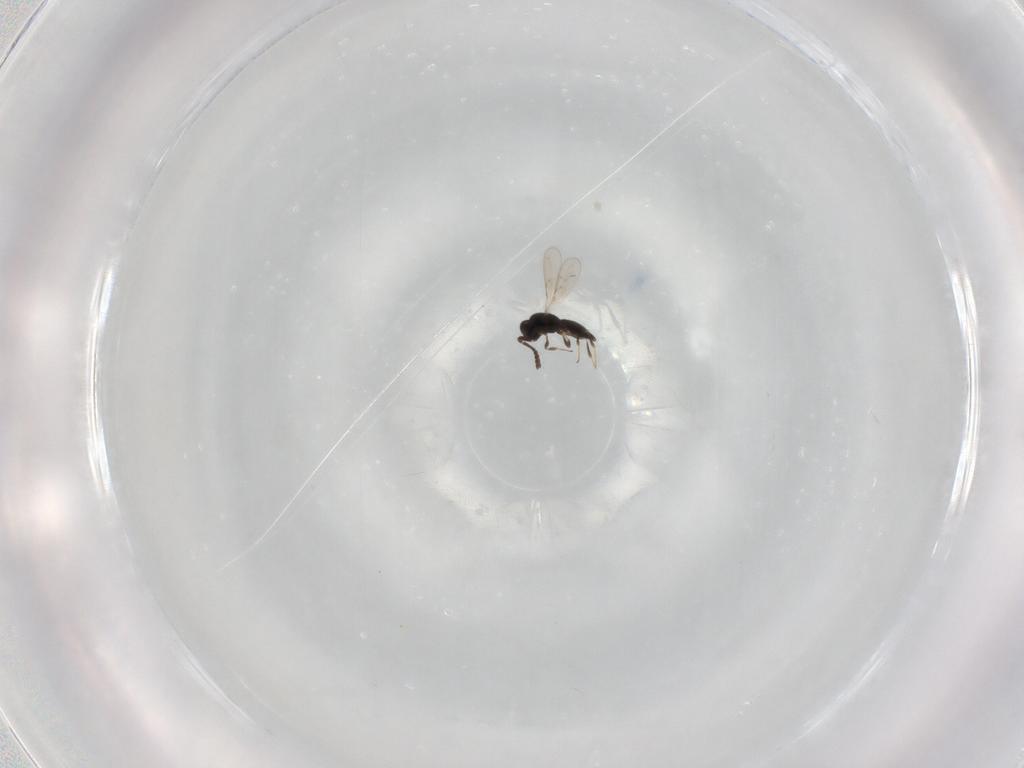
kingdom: Animalia
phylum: Arthropoda
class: Insecta
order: Hymenoptera
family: Scelionidae
